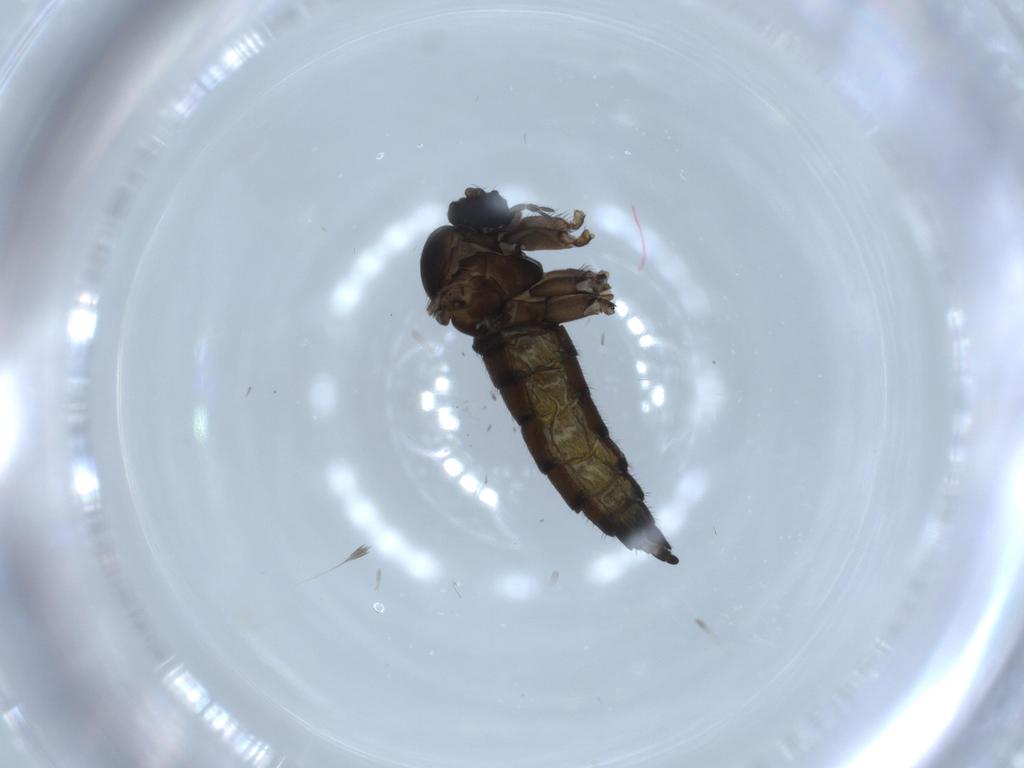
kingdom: Animalia
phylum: Arthropoda
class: Insecta
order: Diptera
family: Sciaridae
